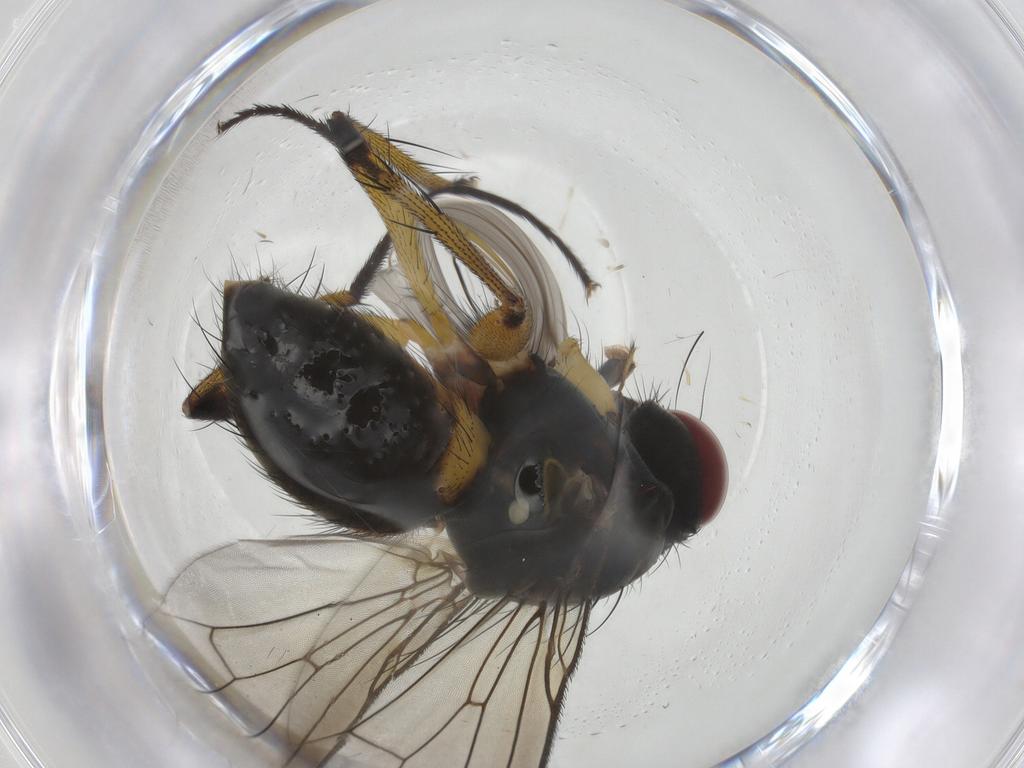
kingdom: Animalia
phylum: Arthropoda
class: Insecta
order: Diptera
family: Muscidae
